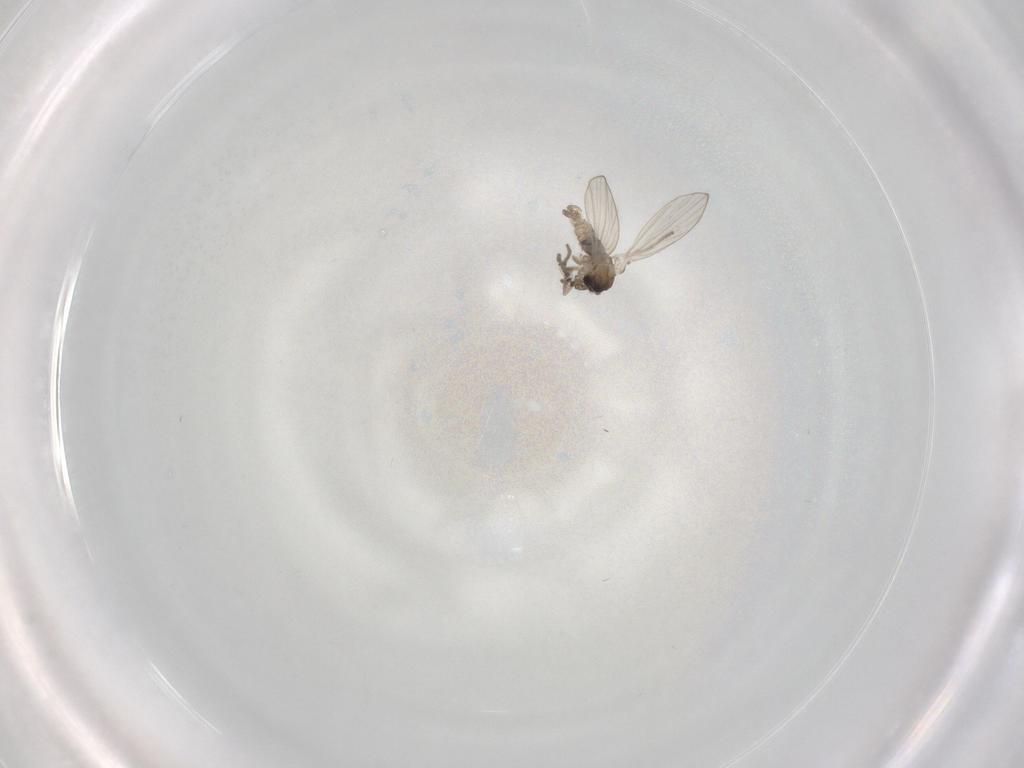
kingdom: Animalia
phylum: Arthropoda
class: Insecta
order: Diptera
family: Psychodidae
